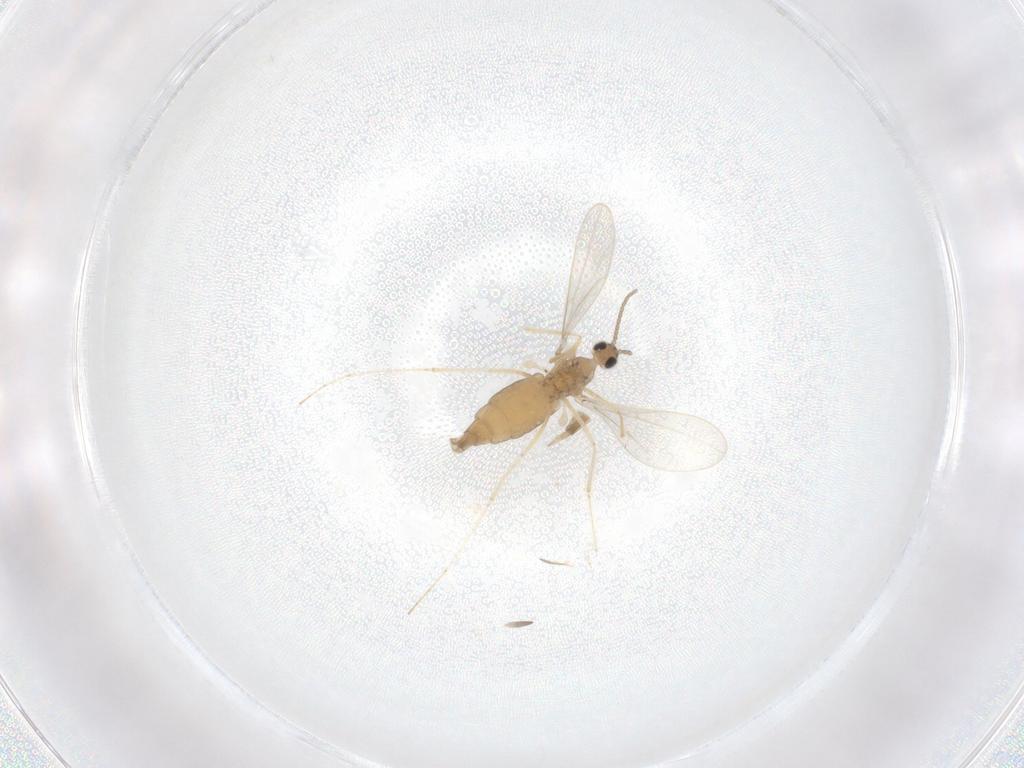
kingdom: Animalia
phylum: Arthropoda
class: Insecta
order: Diptera
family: Cecidomyiidae
